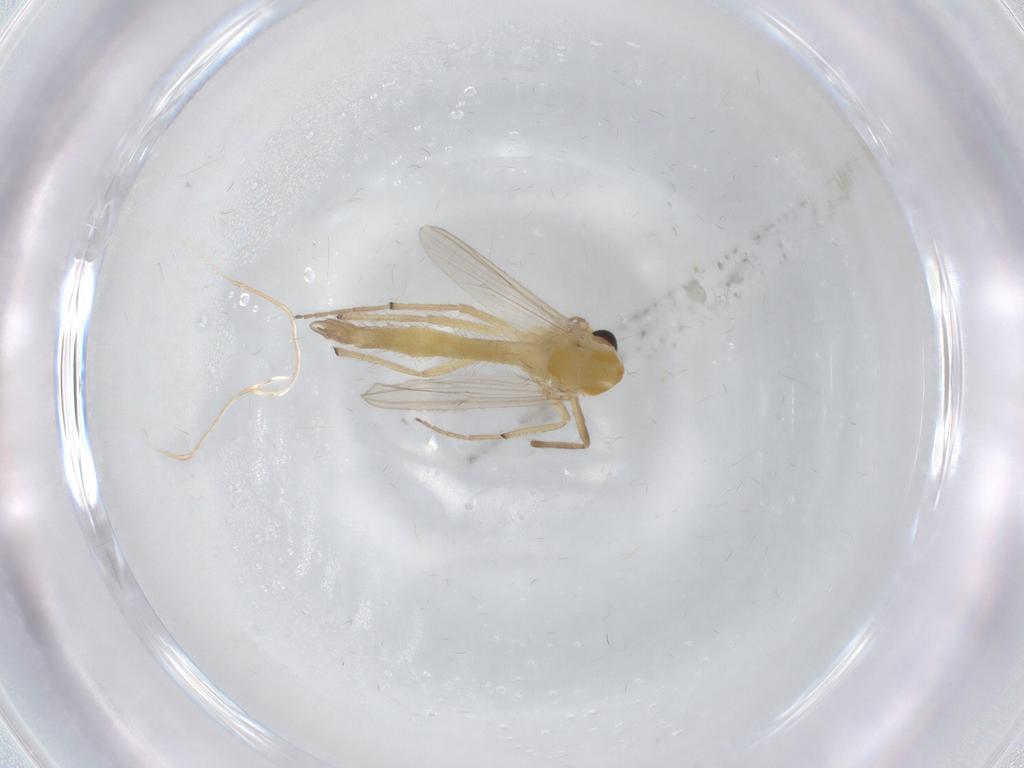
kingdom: Animalia
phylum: Arthropoda
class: Insecta
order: Diptera
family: Chironomidae
